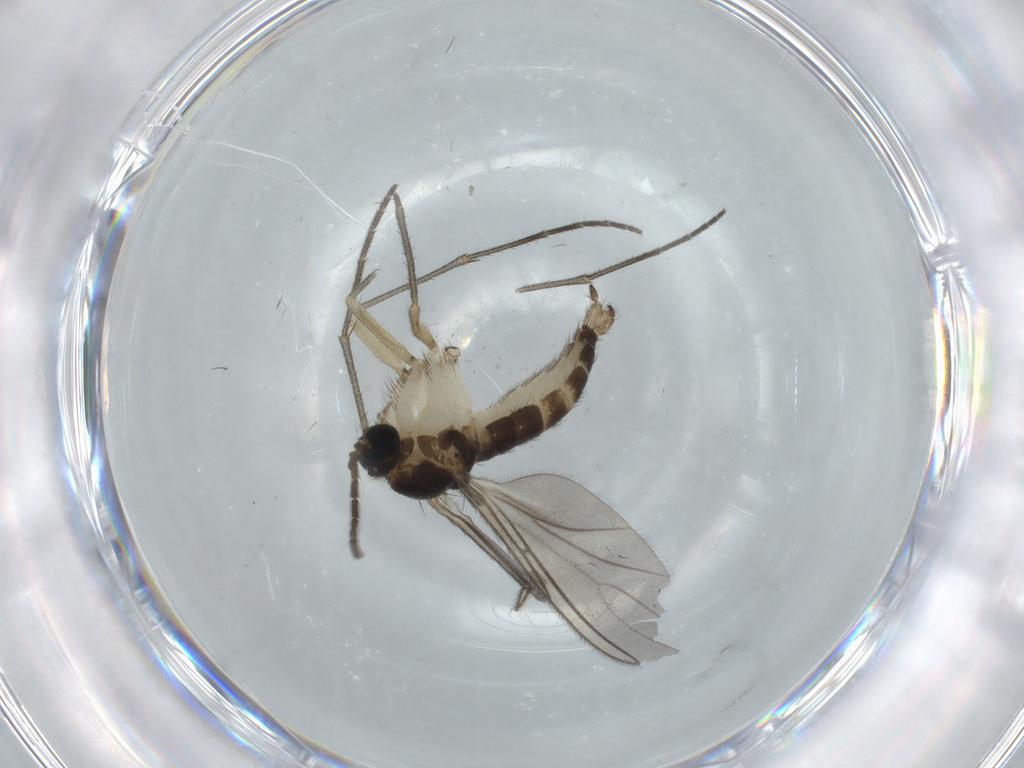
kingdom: Animalia
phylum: Arthropoda
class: Insecta
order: Diptera
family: Sciaridae
